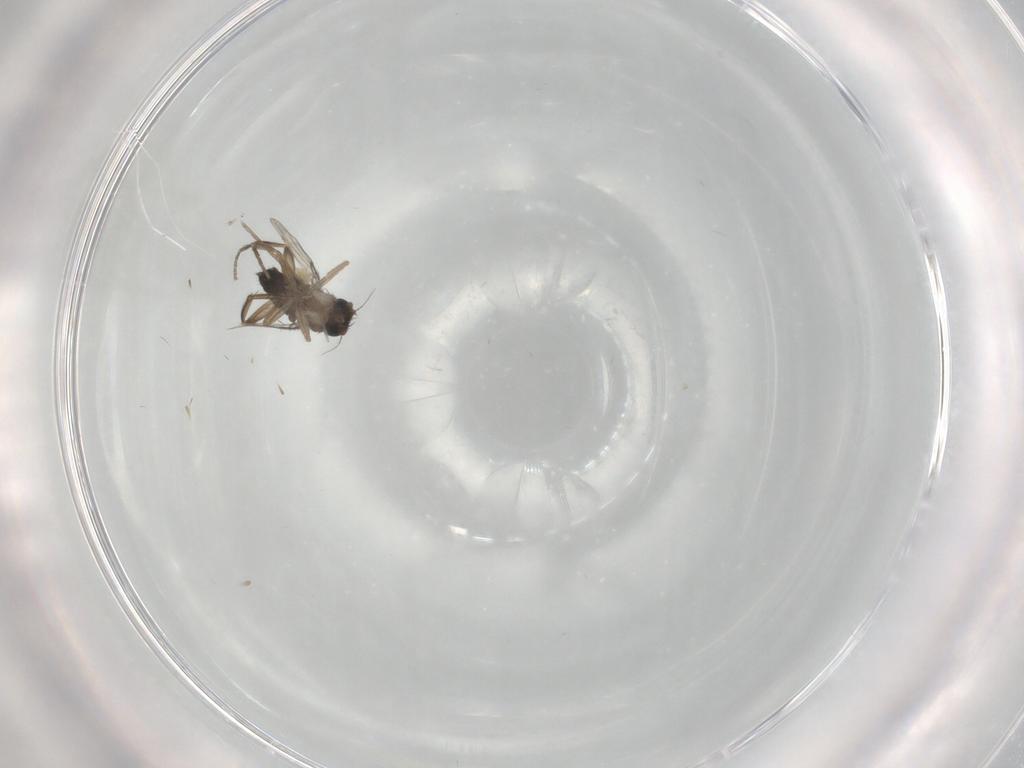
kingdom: Animalia
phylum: Arthropoda
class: Insecta
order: Diptera
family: Phoridae
